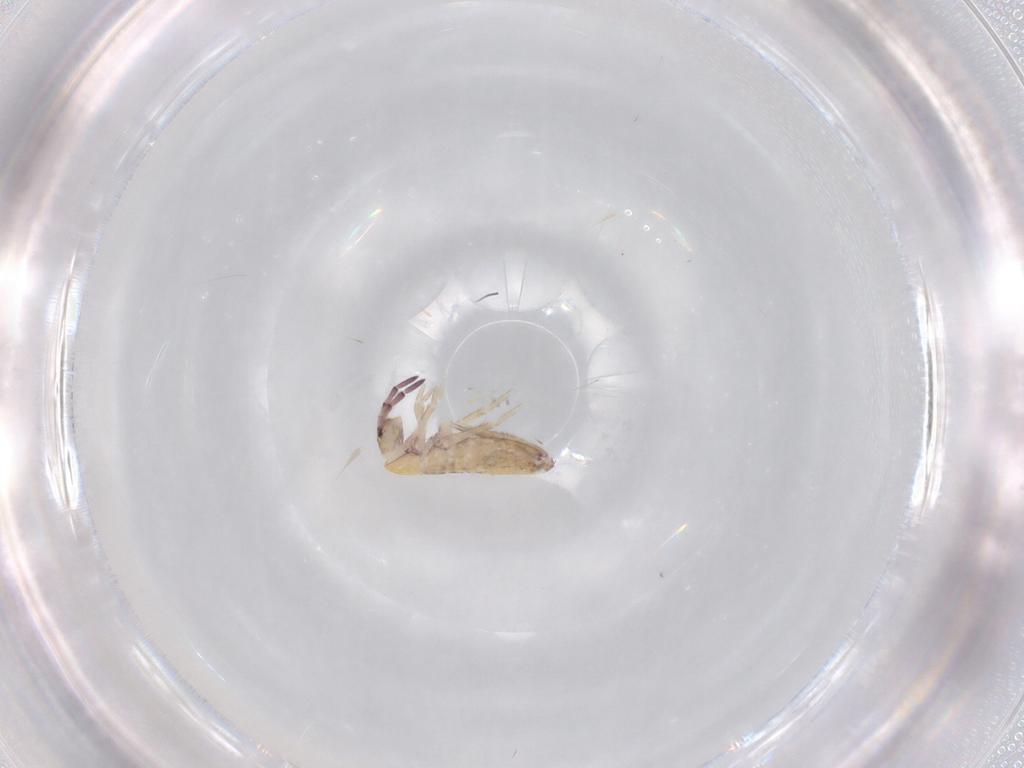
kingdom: Animalia
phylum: Arthropoda
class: Collembola
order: Entomobryomorpha
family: Entomobryidae
